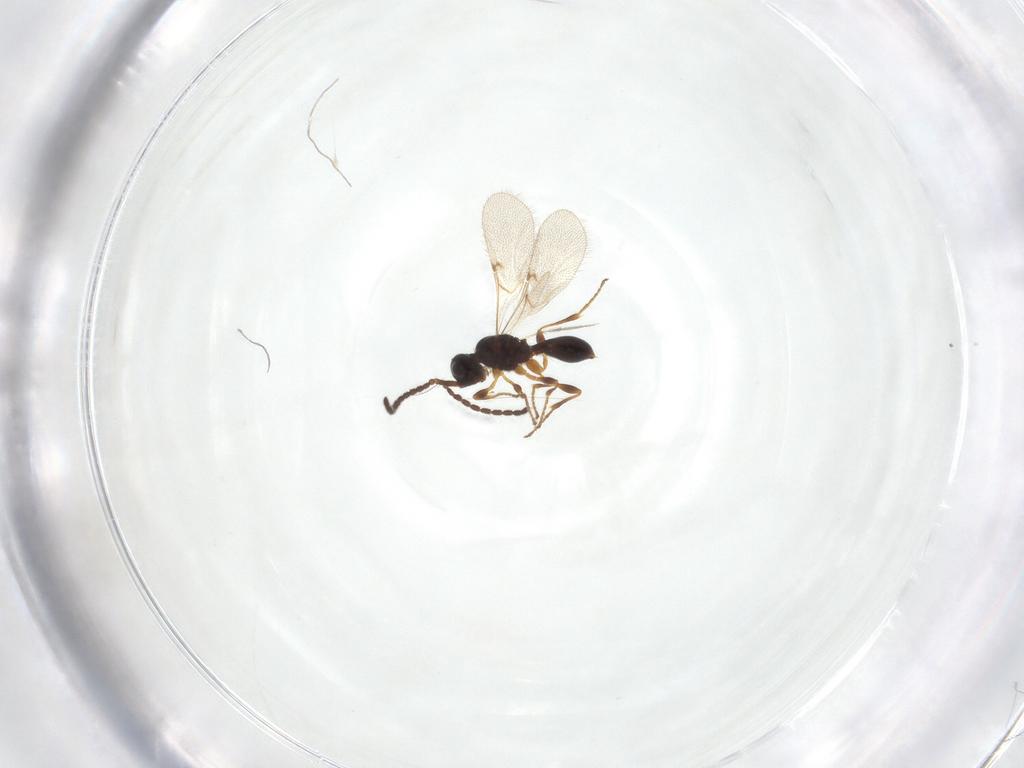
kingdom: Animalia
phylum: Arthropoda
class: Insecta
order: Hymenoptera
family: Diapriidae
